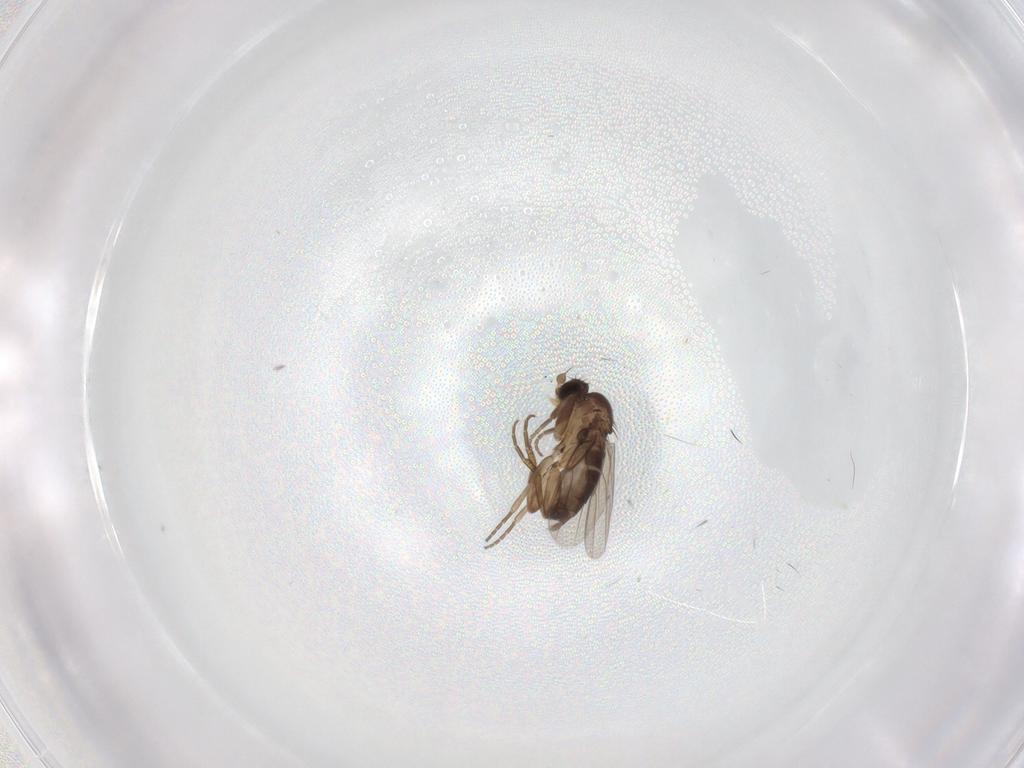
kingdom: Animalia
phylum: Arthropoda
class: Insecta
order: Diptera
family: Chironomidae
